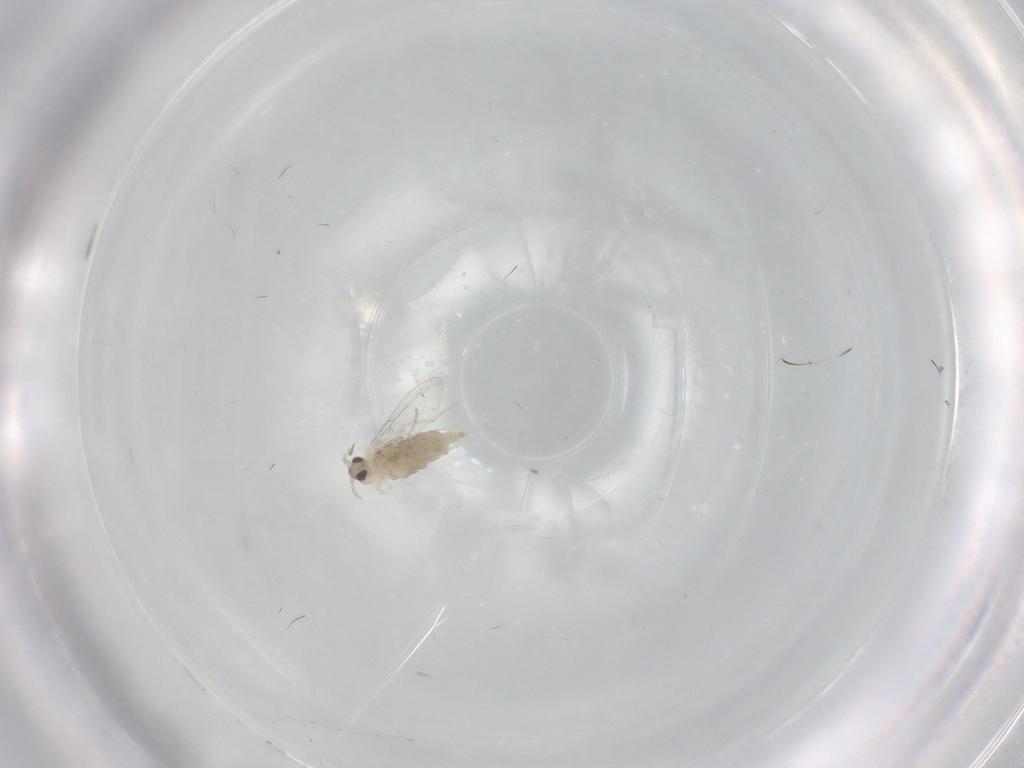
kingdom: Animalia
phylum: Arthropoda
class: Insecta
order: Diptera
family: Cecidomyiidae
